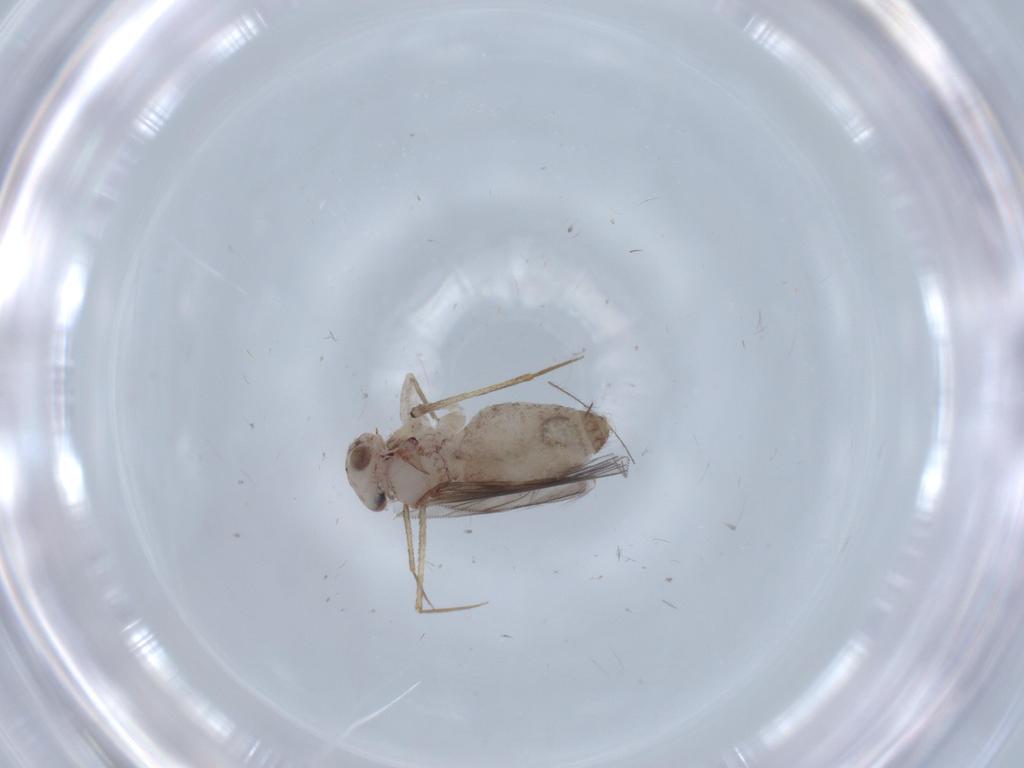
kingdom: Animalia
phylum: Arthropoda
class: Insecta
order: Psocodea
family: Lepidopsocidae
